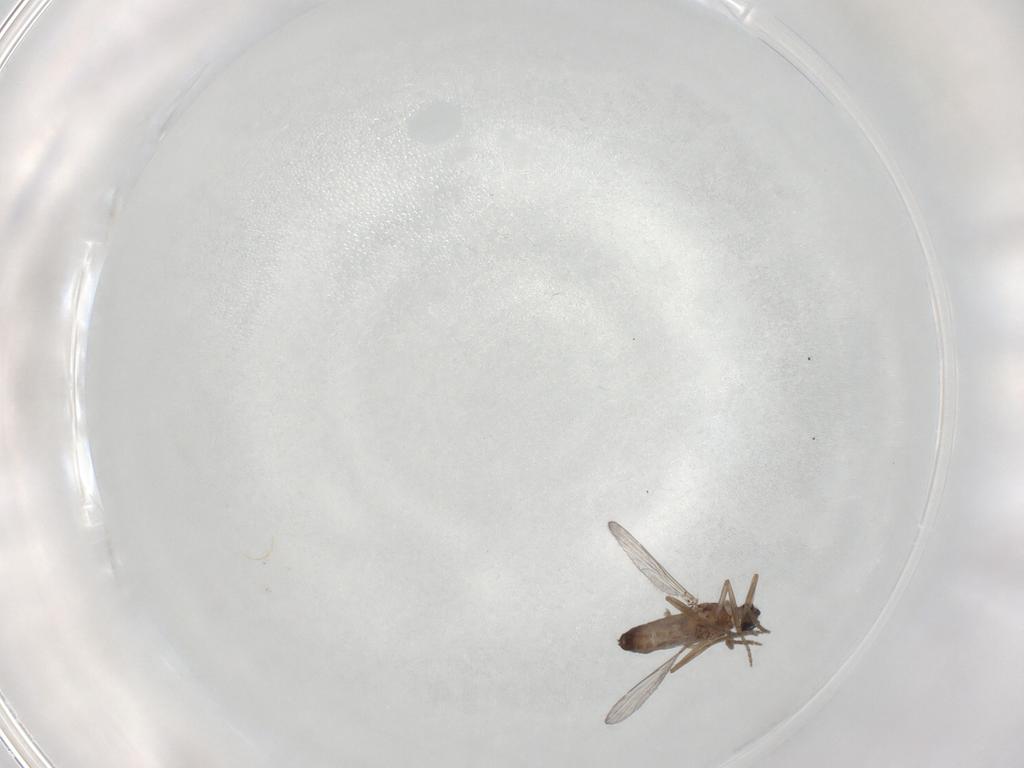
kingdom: Animalia
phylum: Arthropoda
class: Insecta
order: Diptera
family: Ceratopogonidae
